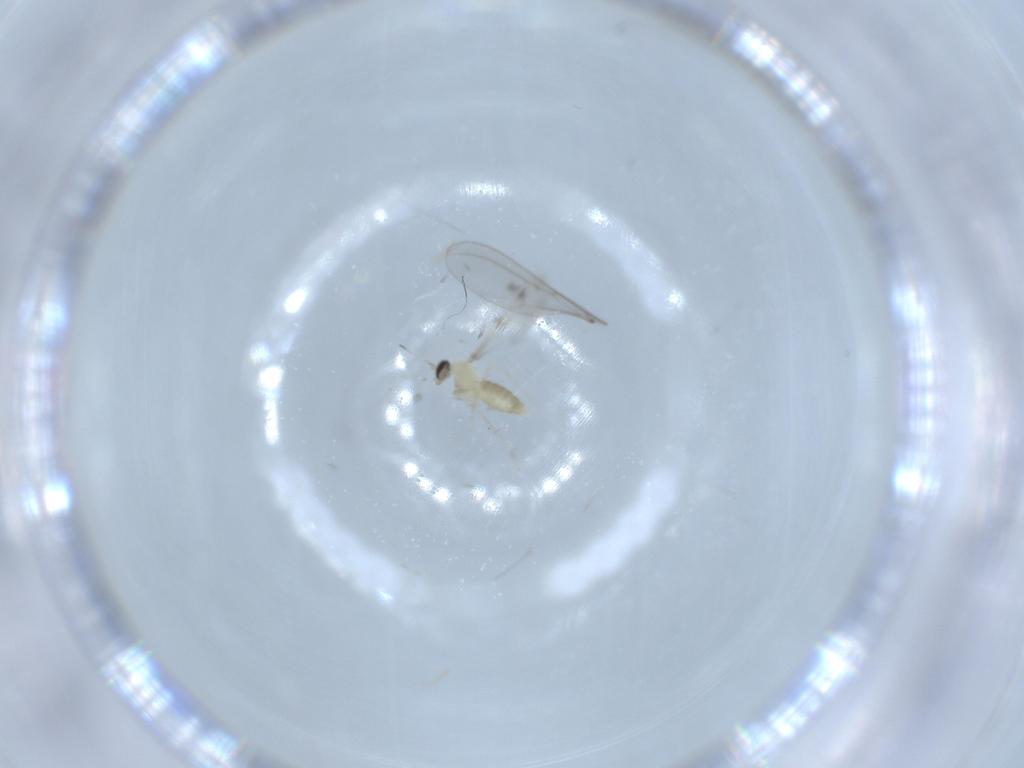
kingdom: Animalia
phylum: Arthropoda
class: Insecta
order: Diptera
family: Cecidomyiidae
